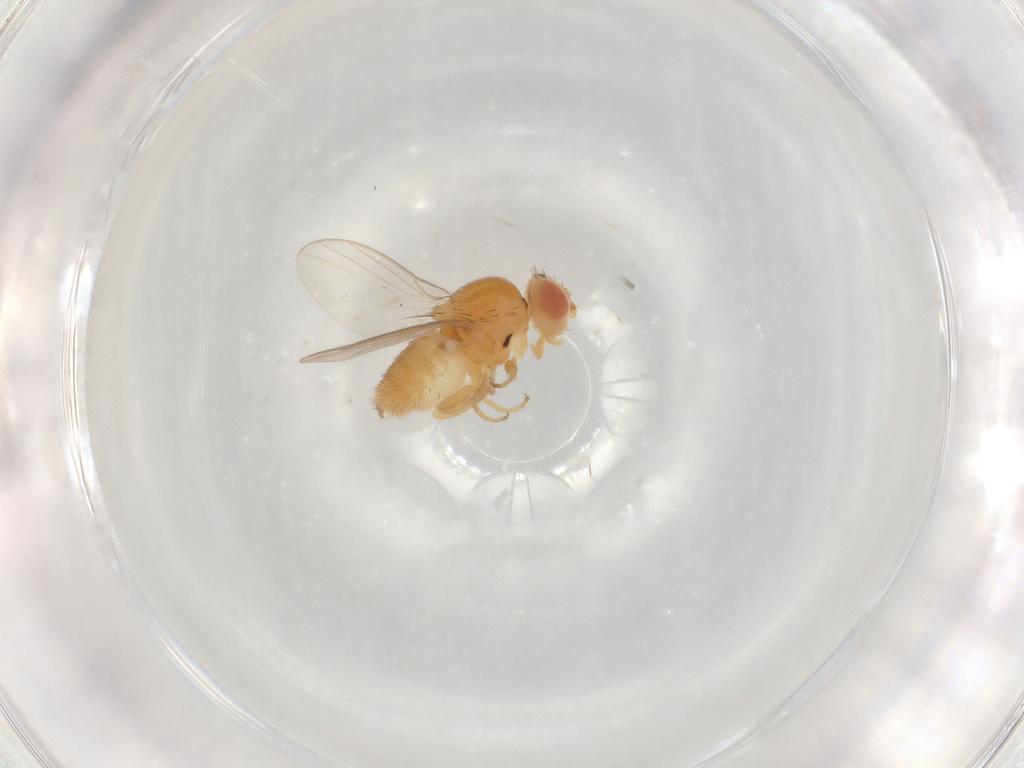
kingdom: Animalia
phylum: Arthropoda
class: Insecta
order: Diptera
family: Chloropidae
